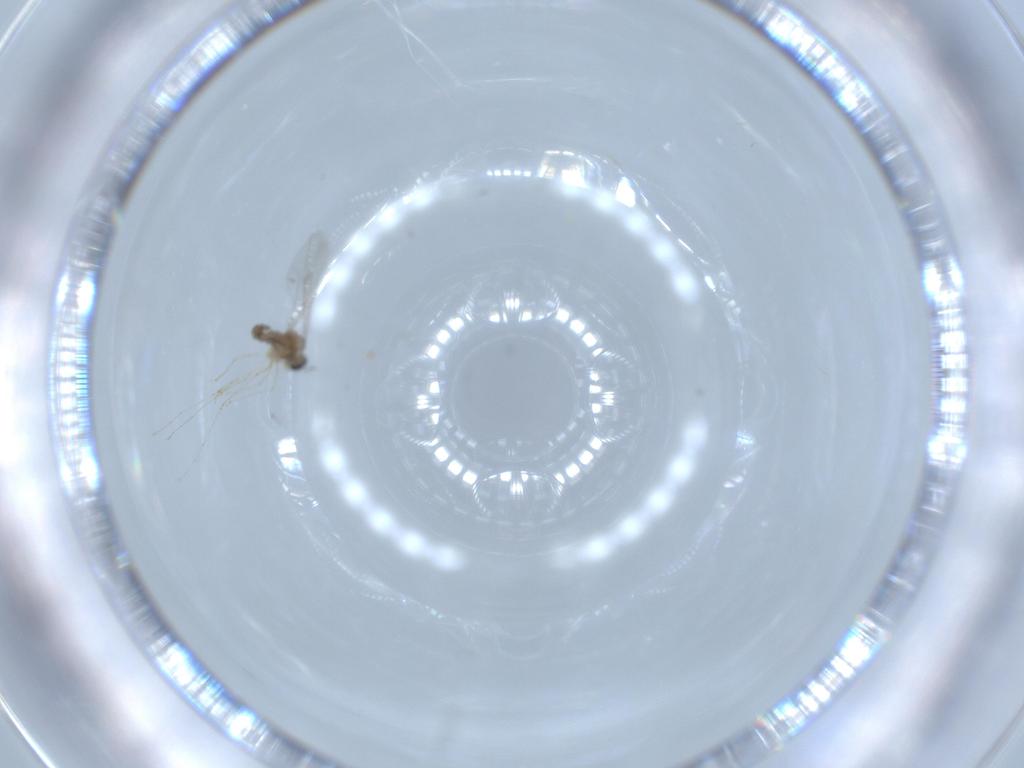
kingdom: Animalia
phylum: Arthropoda
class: Insecta
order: Diptera
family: Cecidomyiidae
